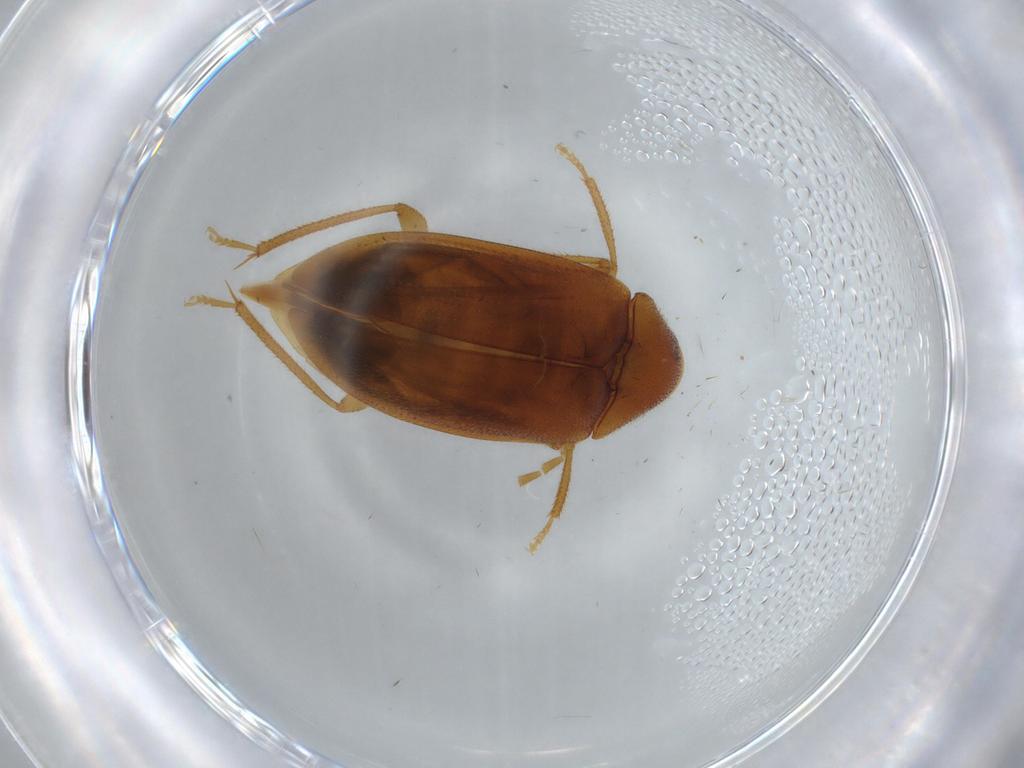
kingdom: Animalia
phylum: Arthropoda
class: Insecta
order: Coleoptera
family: Ptilodactylidae
